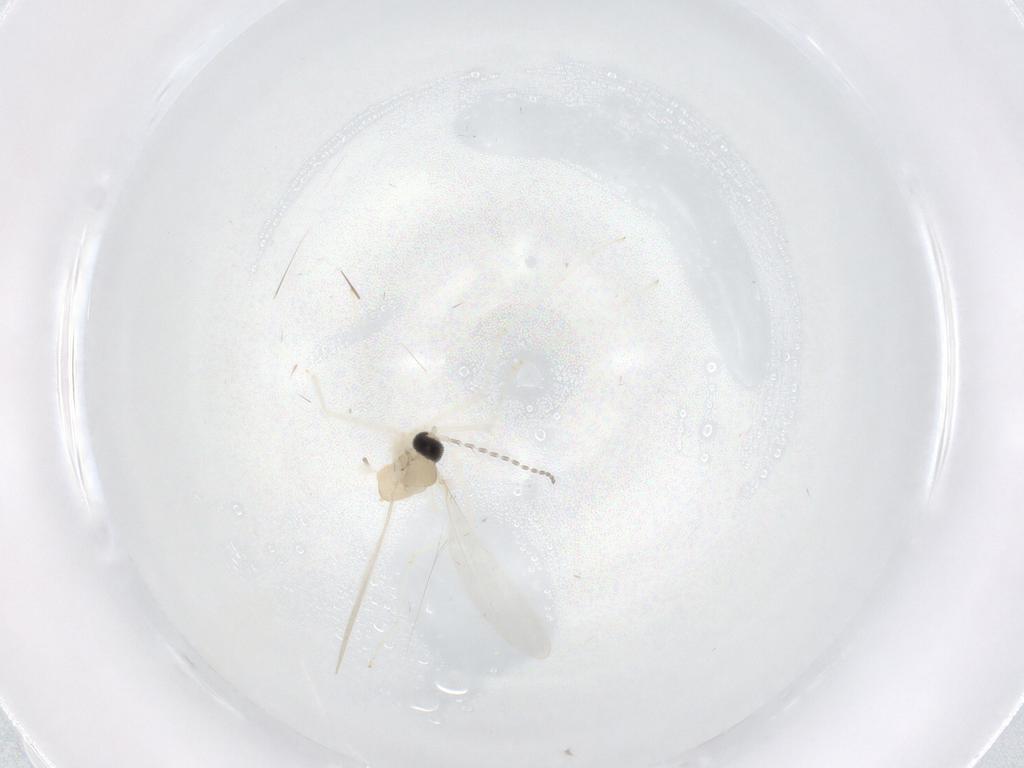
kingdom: Animalia
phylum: Arthropoda
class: Insecta
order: Diptera
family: Cecidomyiidae
